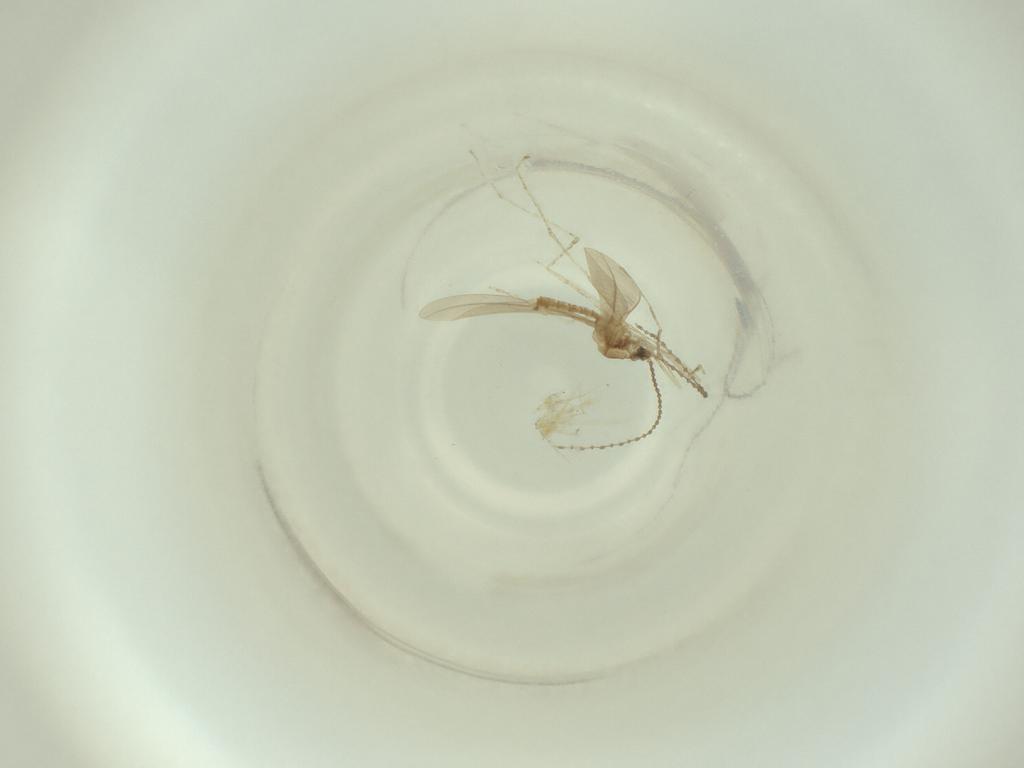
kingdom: Animalia
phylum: Arthropoda
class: Insecta
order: Diptera
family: Cecidomyiidae
